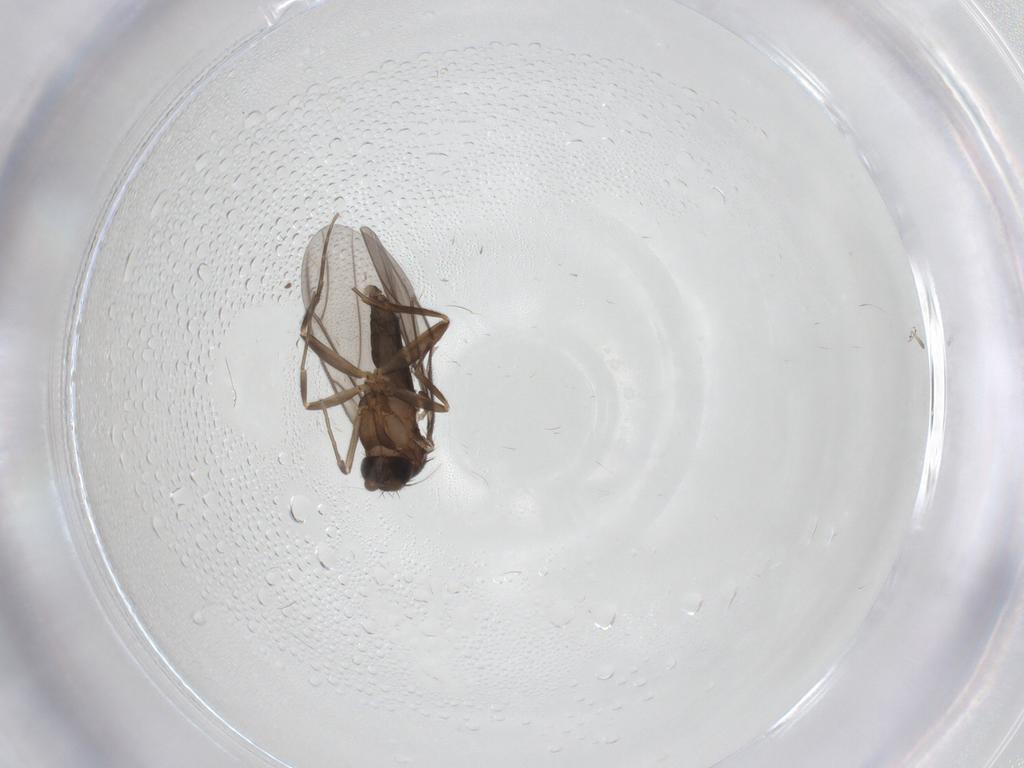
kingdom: Animalia
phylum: Arthropoda
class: Insecta
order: Diptera
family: Phoridae
